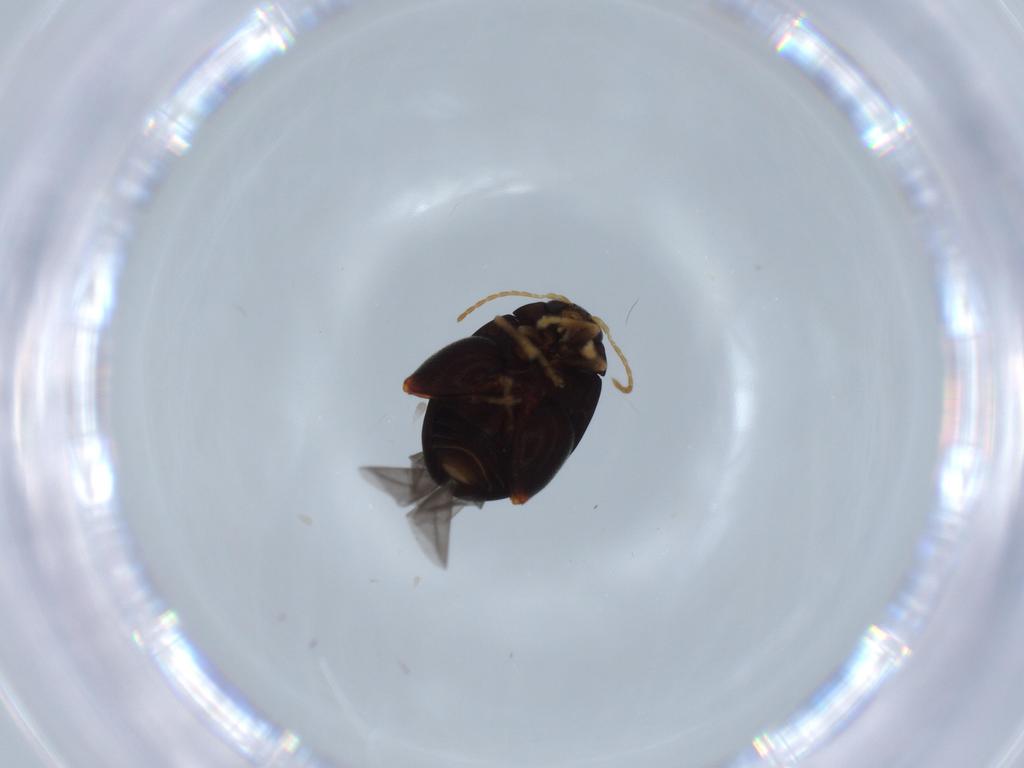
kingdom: Animalia
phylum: Arthropoda
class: Insecta
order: Coleoptera
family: Chrysomelidae
